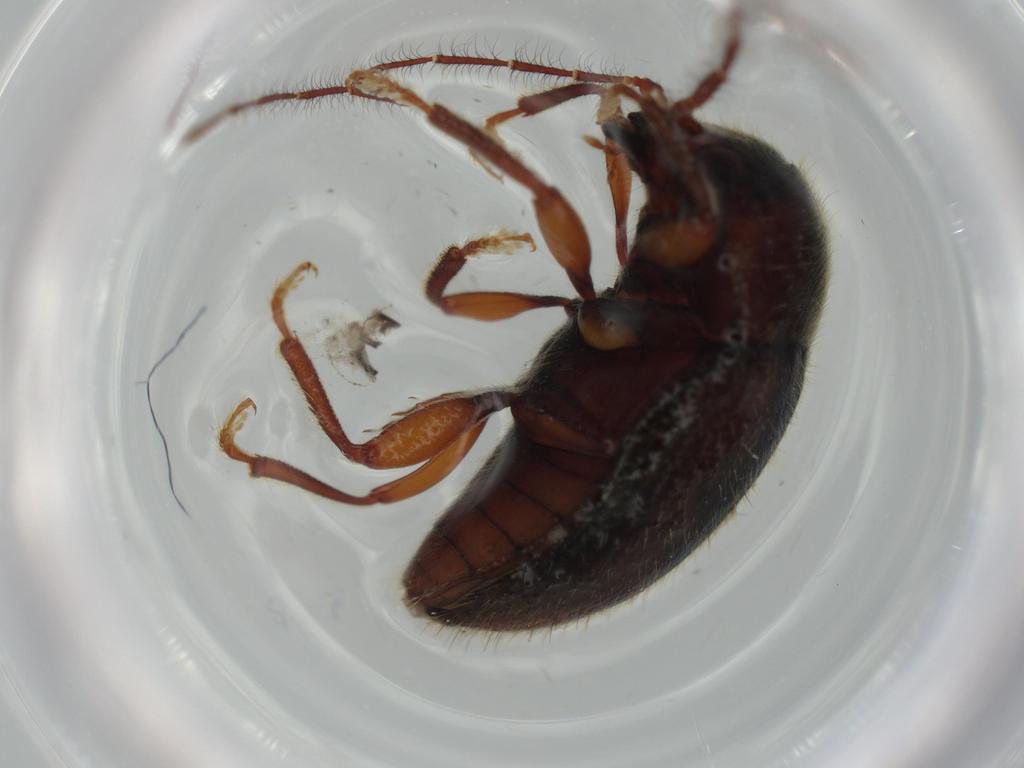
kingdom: Animalia
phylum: Arthropoda
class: Insecta
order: Coleoptera
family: Artematopodidae
